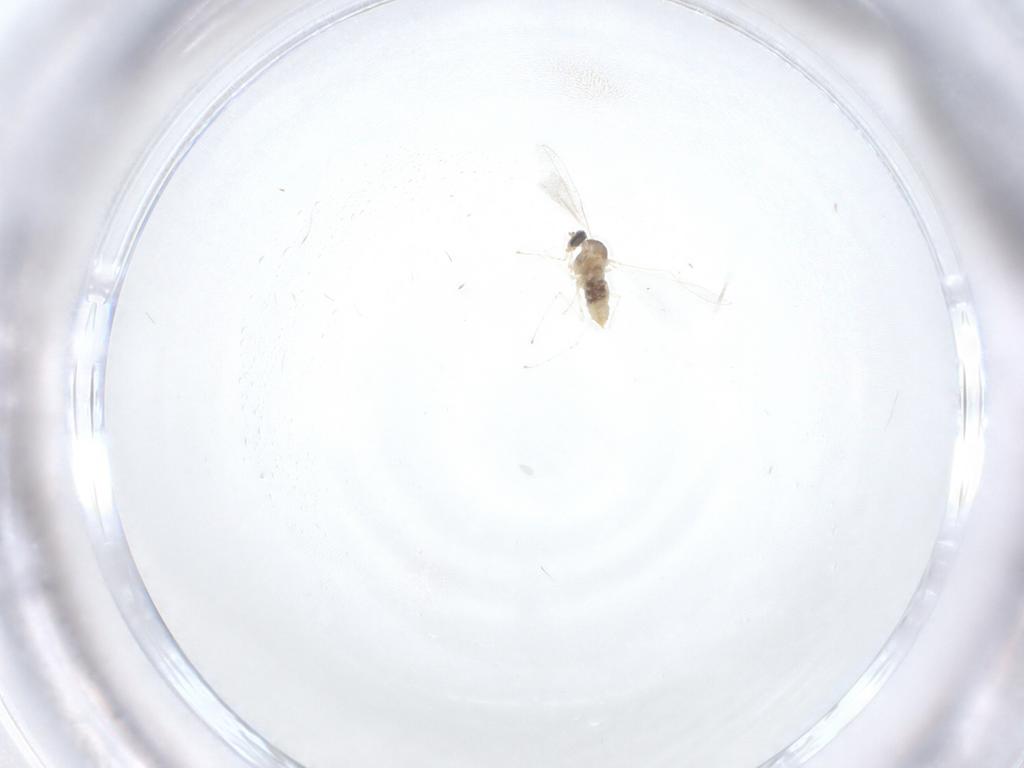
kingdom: Animalia
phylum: Arthropoda
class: Insecta
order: Diptera
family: Cecidomyiidae
